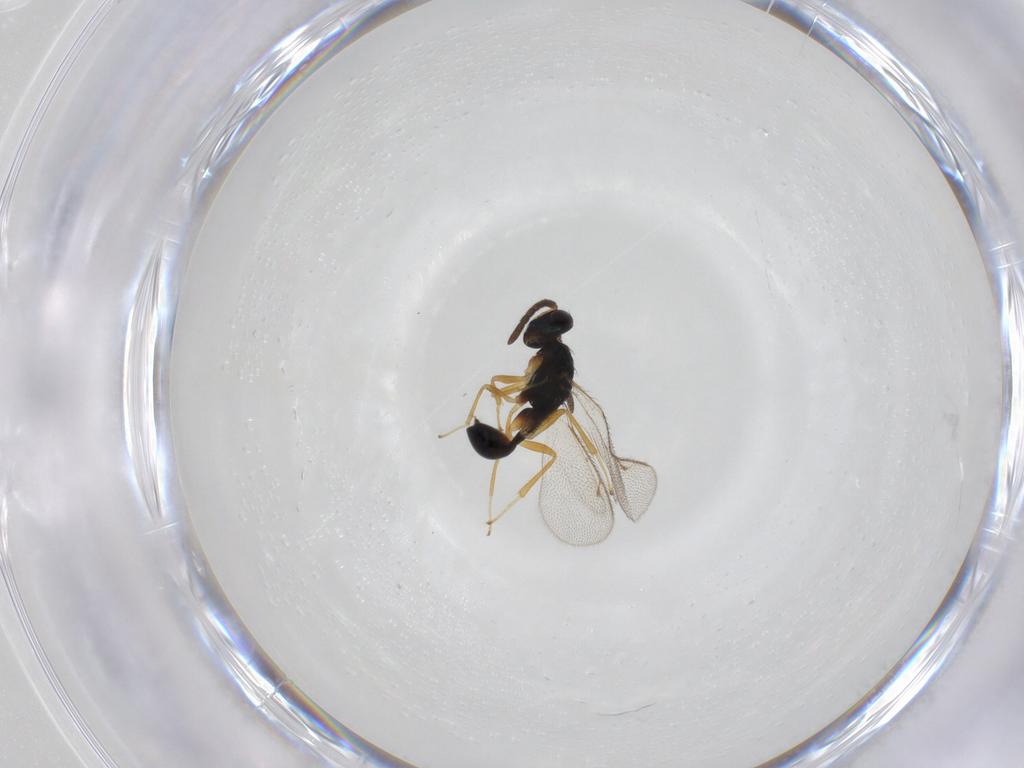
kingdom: Animalia
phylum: Arthropoda
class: Insecta
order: Hymenoptera
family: Diparidae
